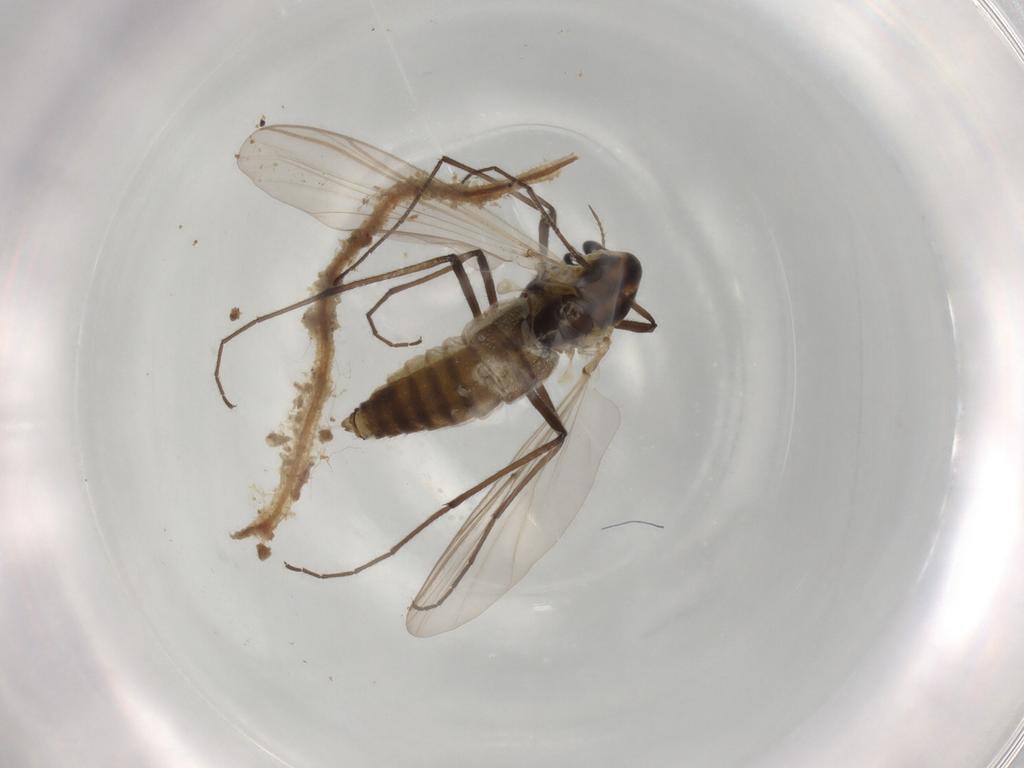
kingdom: Animalia
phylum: Arthropoda
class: Insecta
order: Diptera
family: Chironomidae
